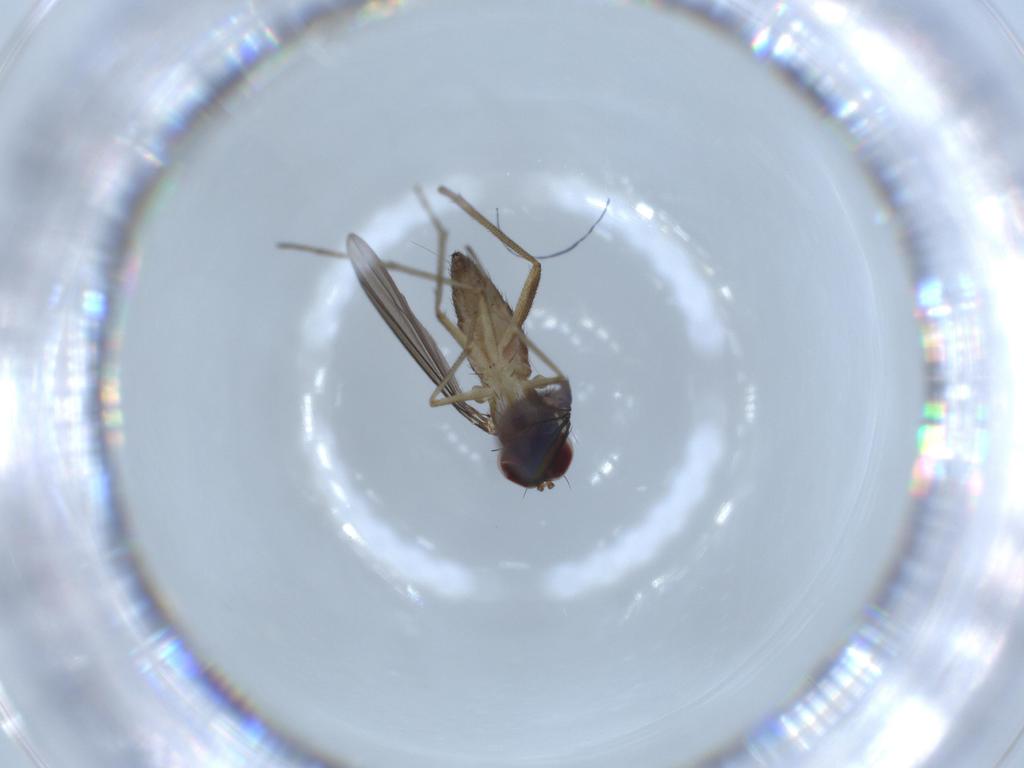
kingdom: Animalia
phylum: Arthropoda
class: Insecta
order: Diptera
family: Dolichopodidae
